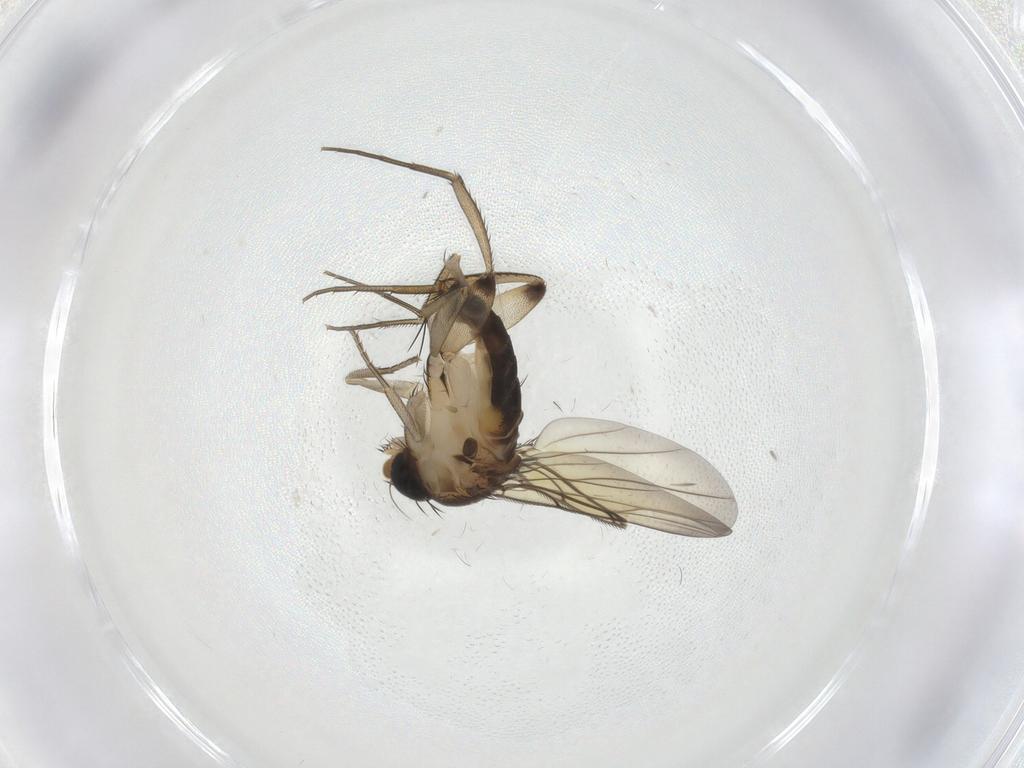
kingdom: Animalia
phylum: Arthropoda
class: Insecta
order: Diptera
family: Phoridae
